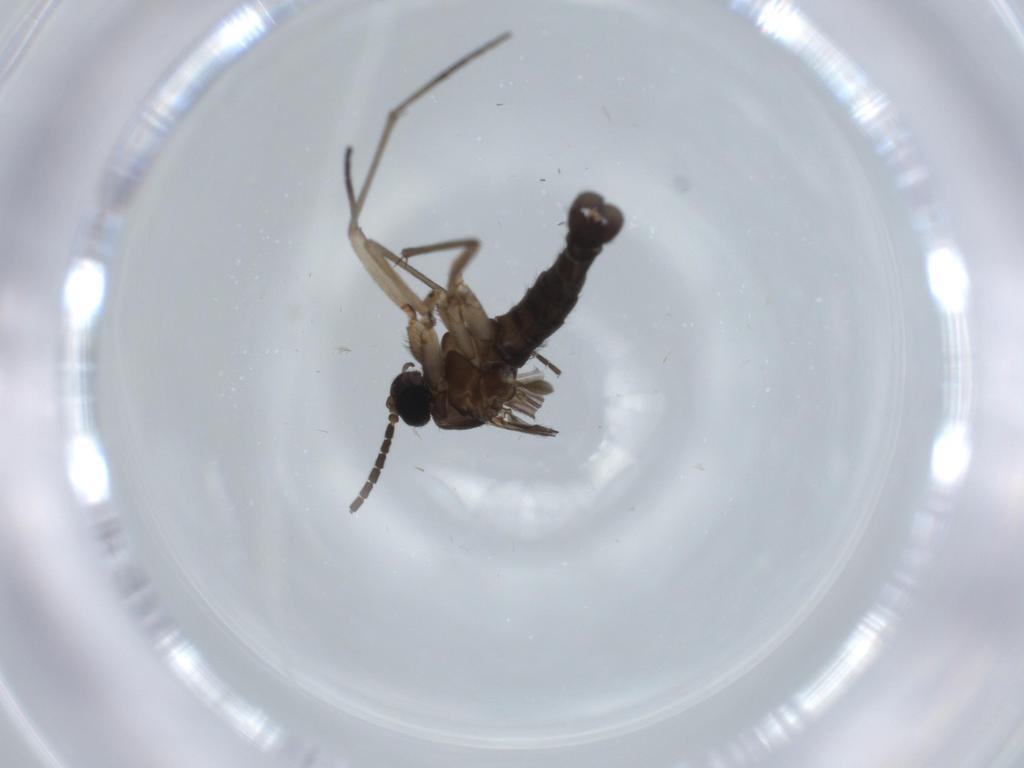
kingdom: Animalia
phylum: Arthropoda
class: Insecta
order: Diptera
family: Sciaridae
